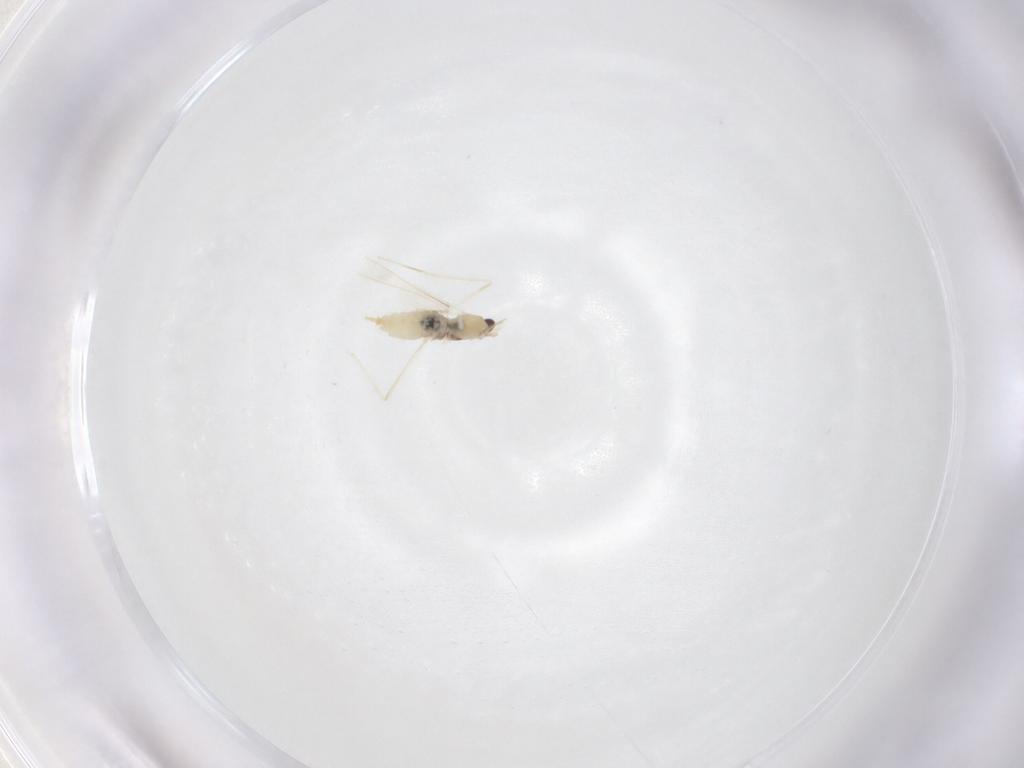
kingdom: Animalia
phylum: Arthropoda
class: Insecta
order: Diptera
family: Cecidomyiidae
